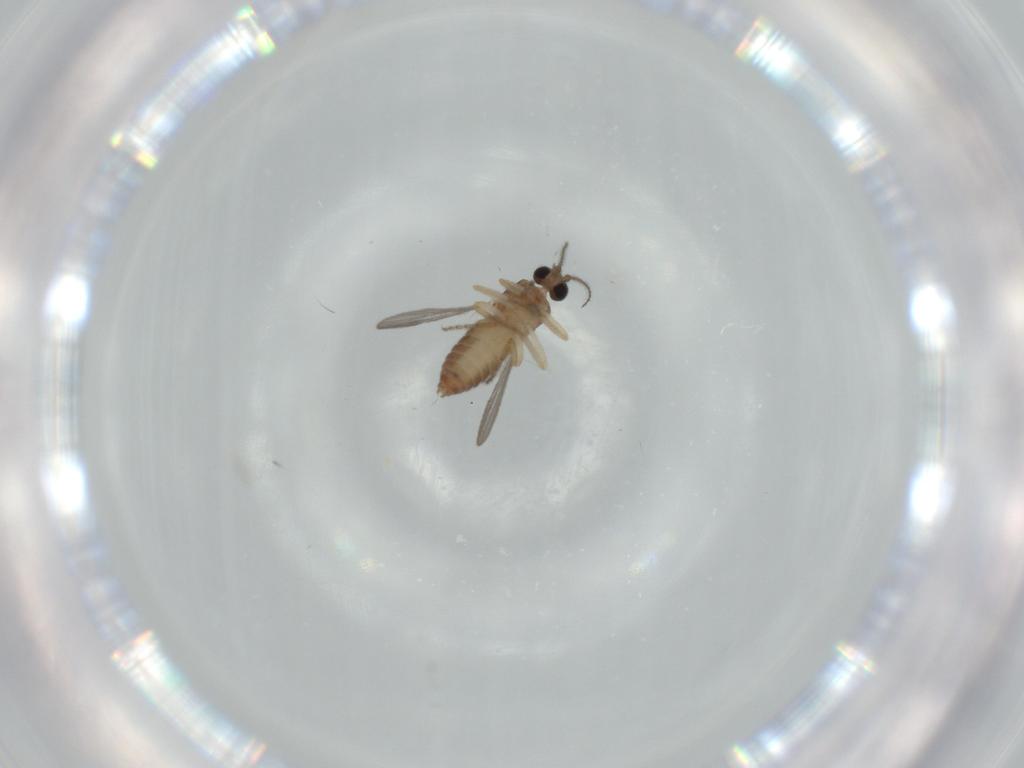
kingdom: Animalia
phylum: Arthropoda
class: Insecta
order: Diptera
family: Ceratopogonidae
